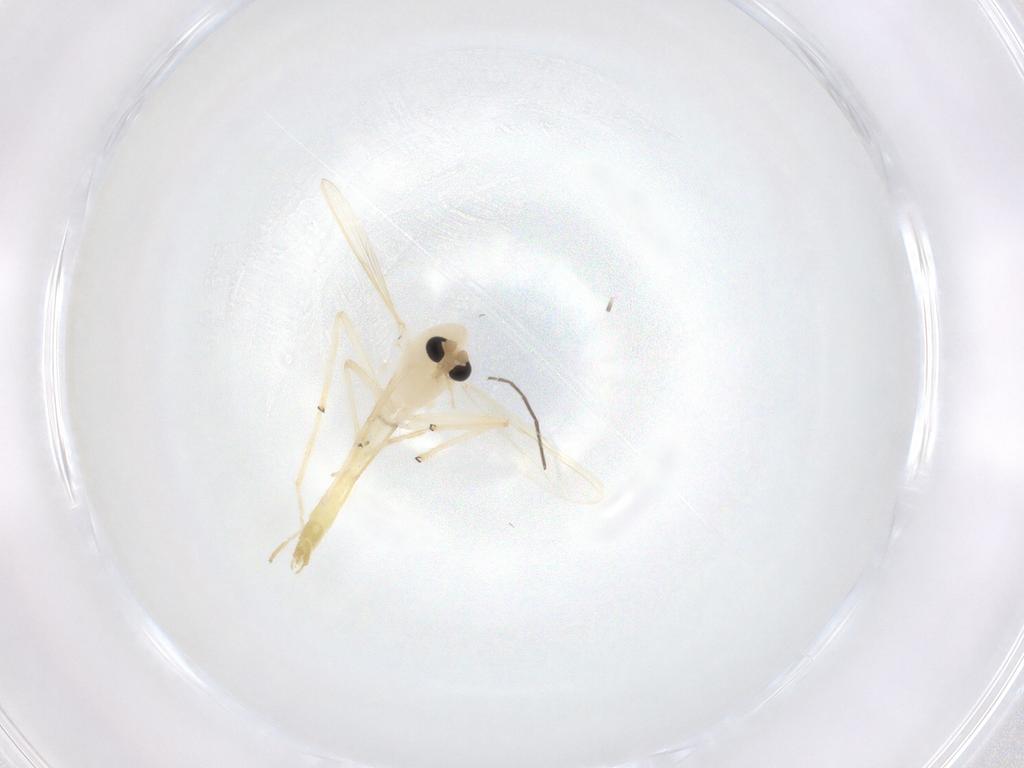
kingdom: Animalia
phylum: Arthropoda
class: Insecta
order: Diptera
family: Chironomidae
